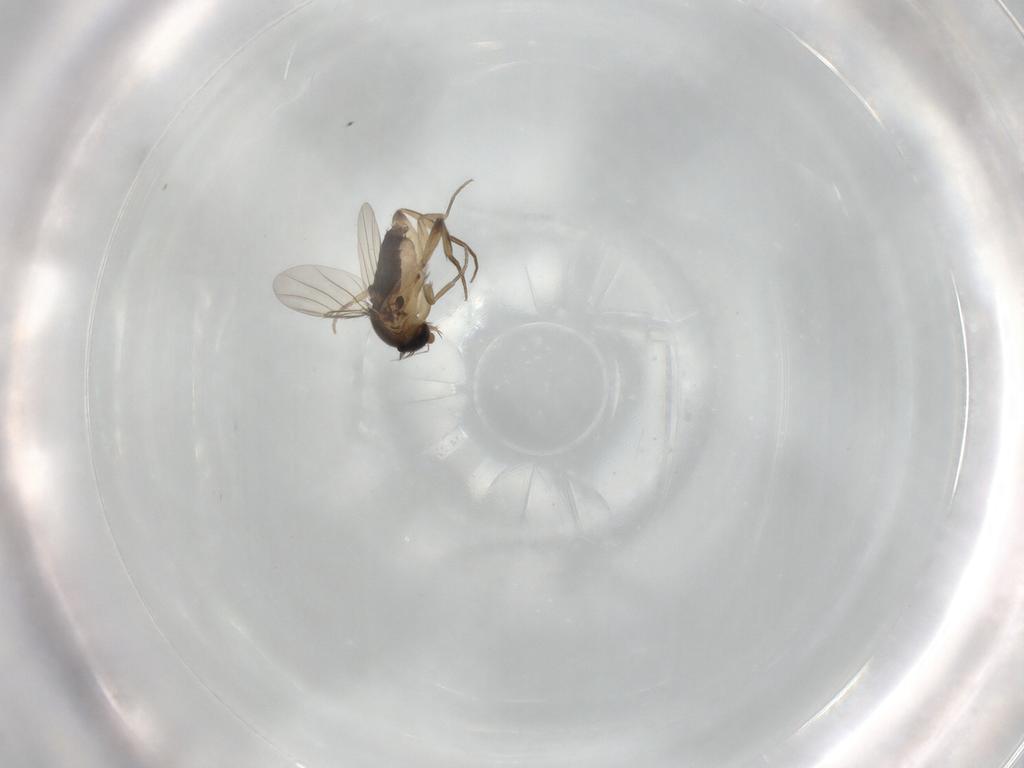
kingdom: Animalia
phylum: Arthropoda
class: Insecta
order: Diptera
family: Phoridae
